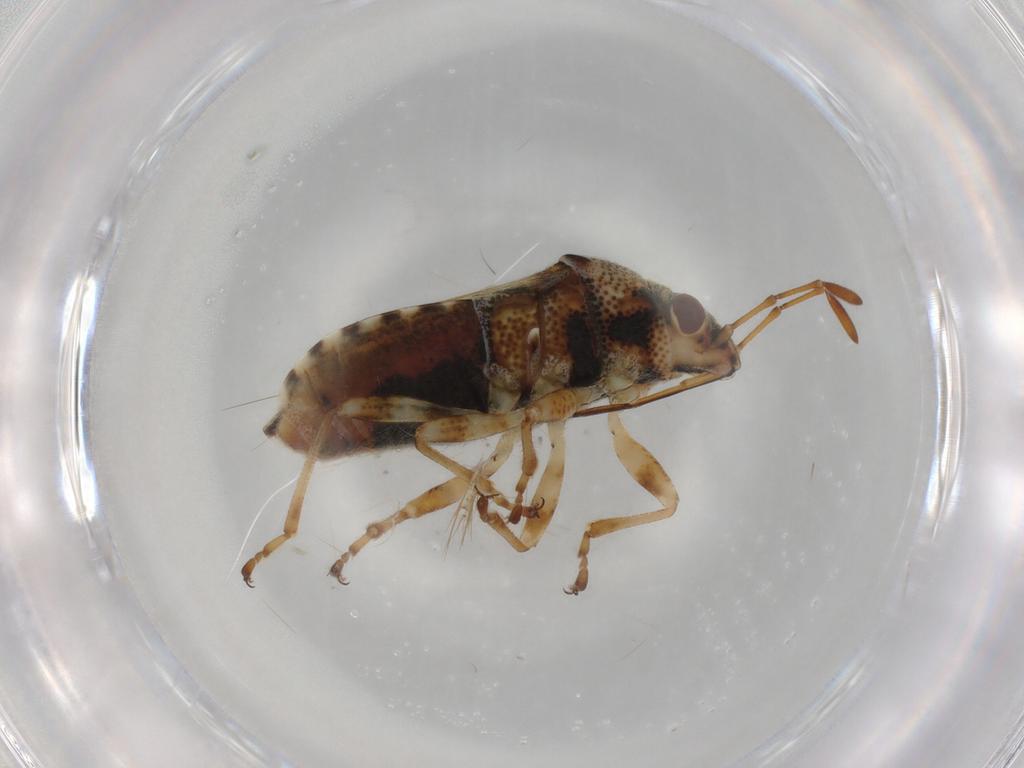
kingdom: Animalia
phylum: Arthropoda
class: Insecta
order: Hemiptera
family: Lygaeidae
